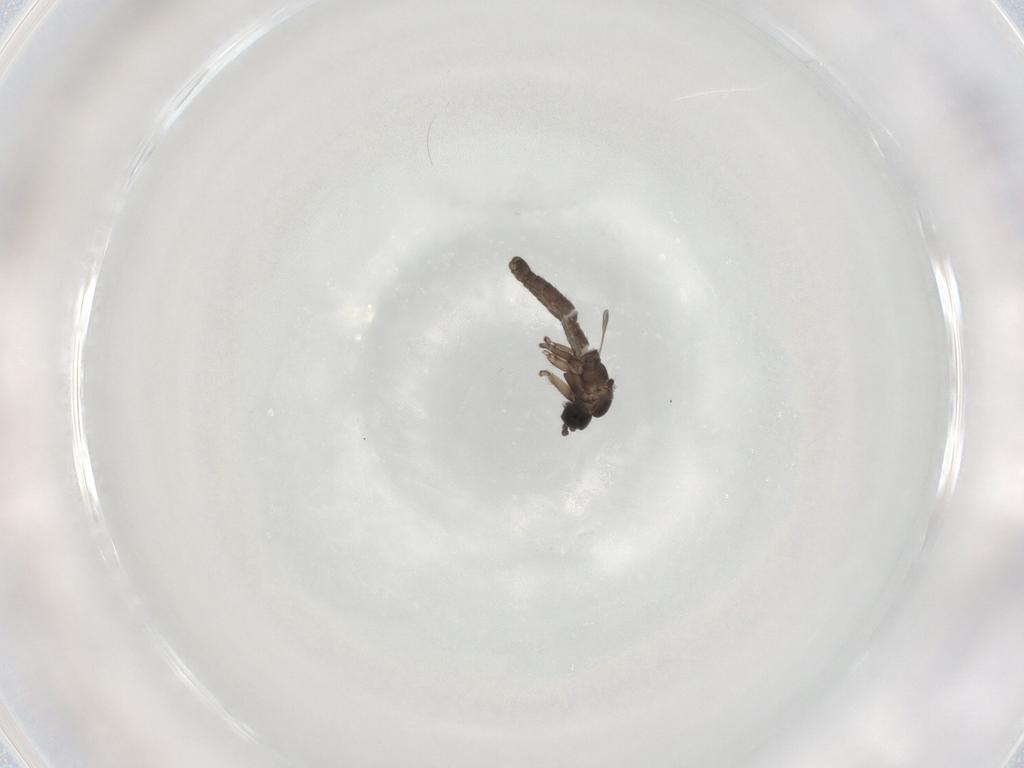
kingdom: Animalia
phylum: Arthropoda
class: Insecta
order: Diptera
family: Sciaridae
